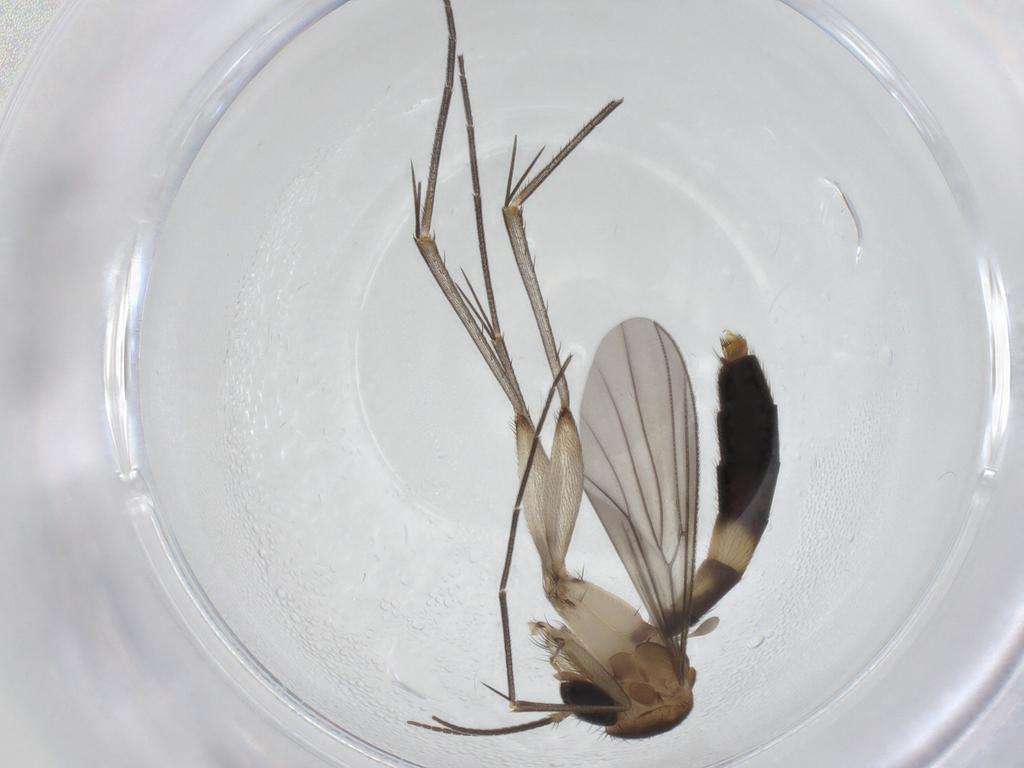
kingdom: Animalia
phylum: Arthropoda
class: Insecta
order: Diptera
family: Mycetophilidae
